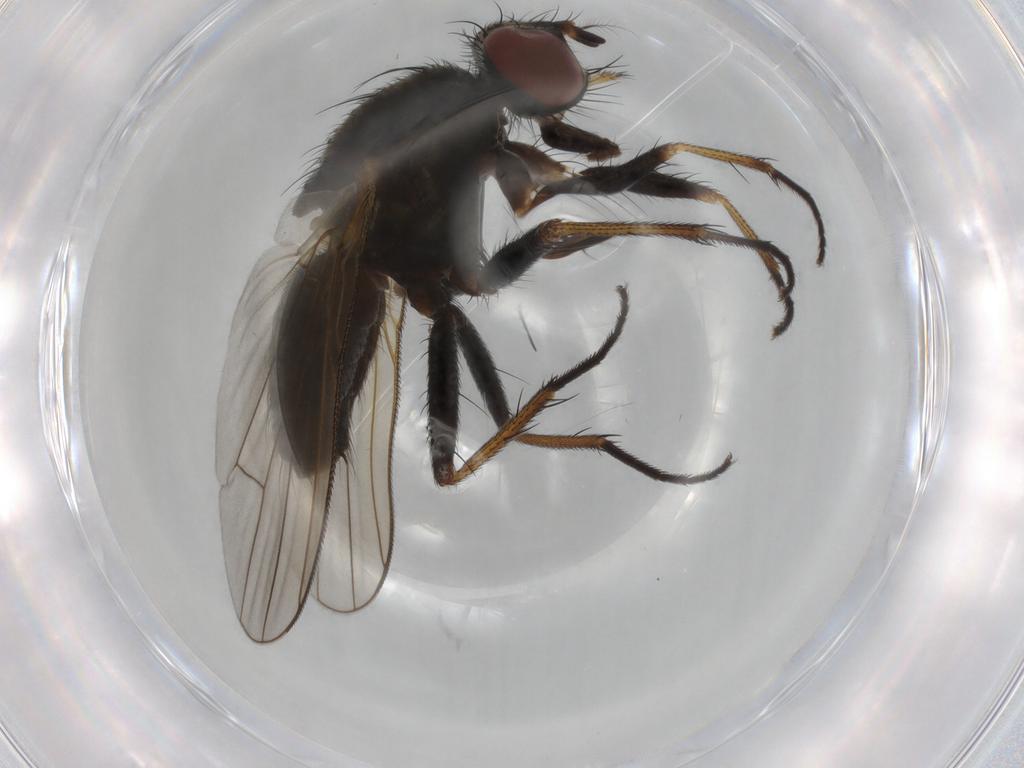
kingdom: Animalia
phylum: Arthropoda
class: Insecta
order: Diptera
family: Muscidae
